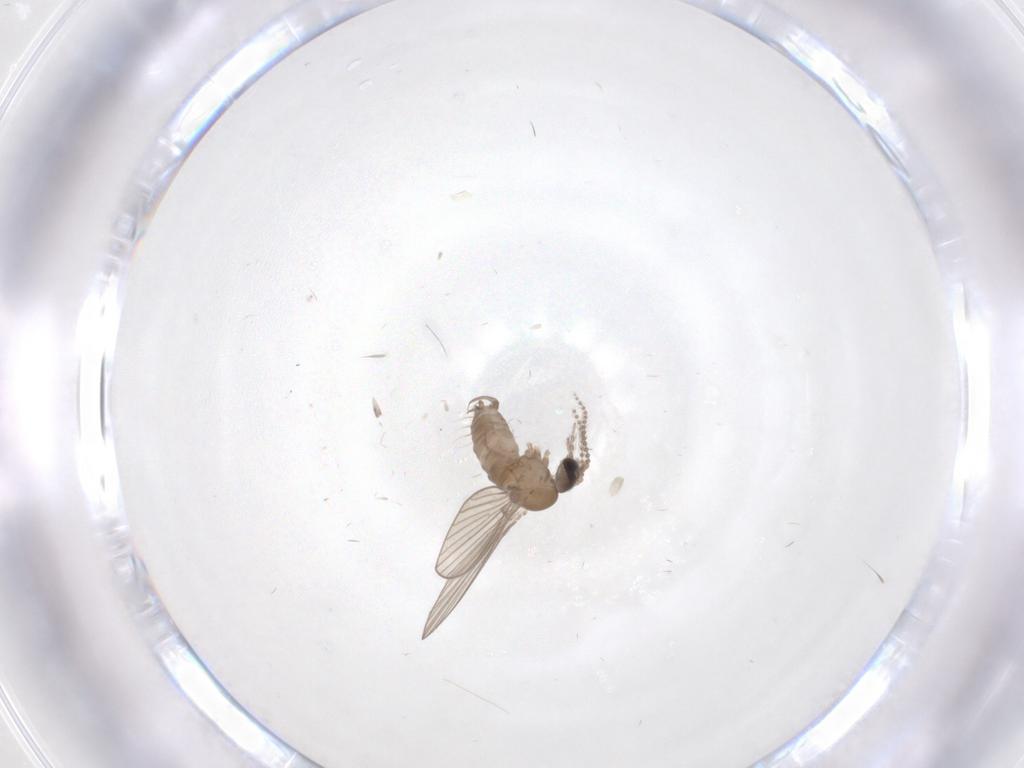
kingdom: Animalia
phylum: Arthropoda
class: Insecta
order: Diptera
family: Psychodidae
